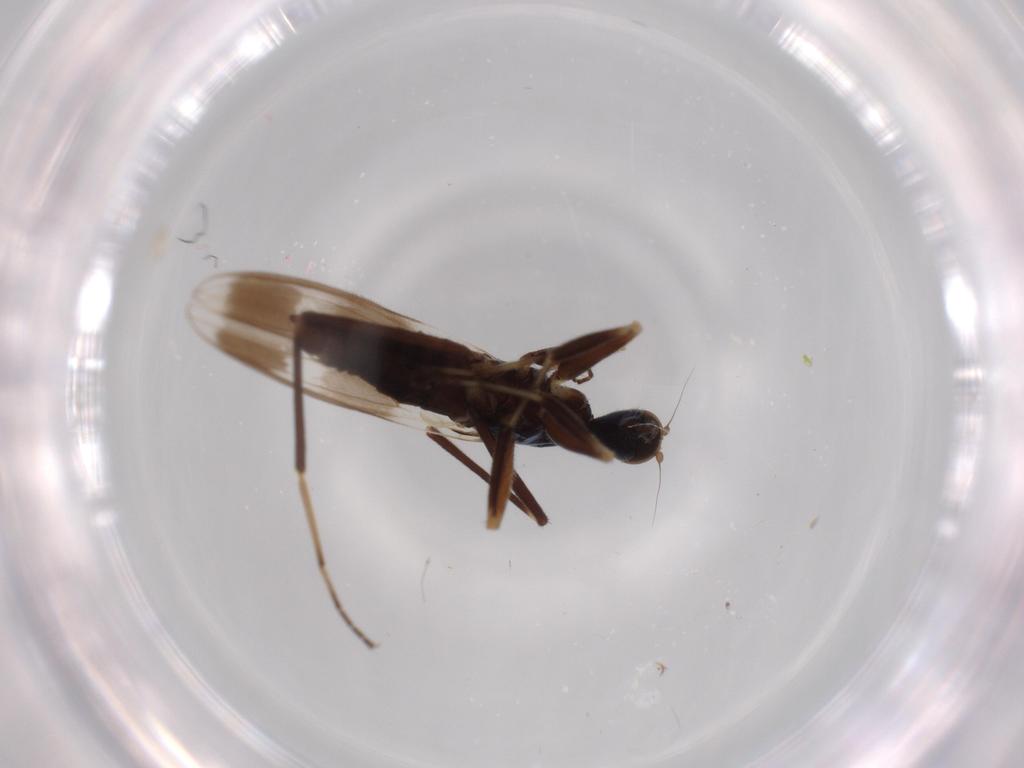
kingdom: Animalia
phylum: Arthropoda
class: Insecta
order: Diptera
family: Hybotidae
